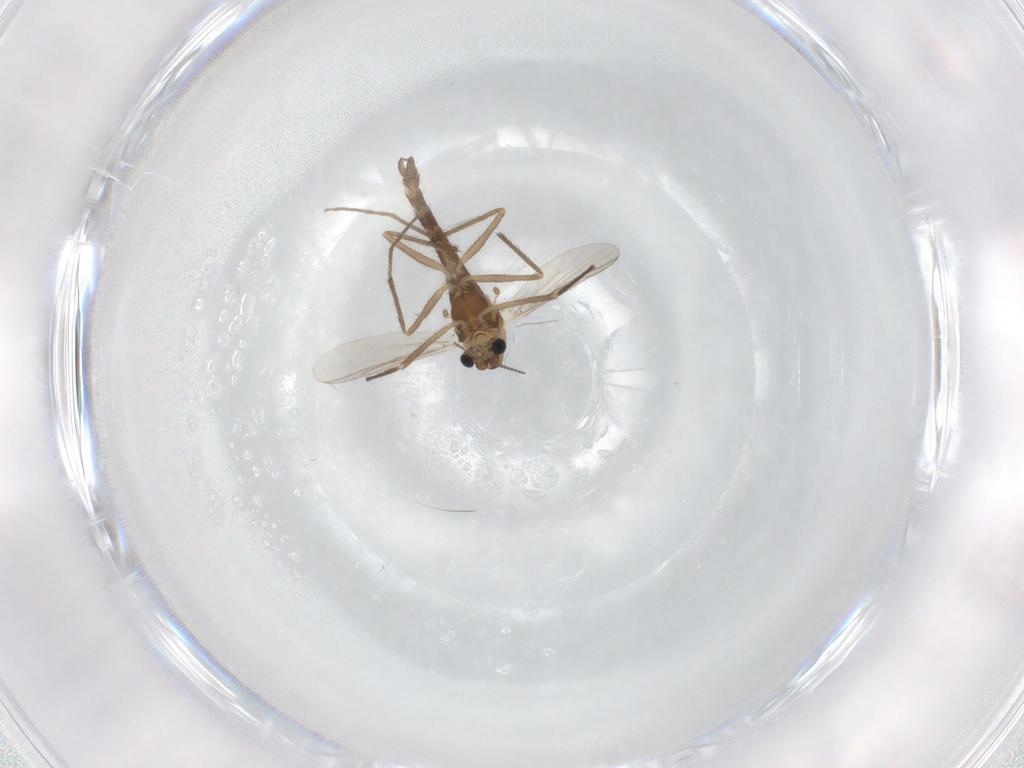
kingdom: Animalia
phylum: Arthropoda
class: Insecta
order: Diptera
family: Chironomidae
